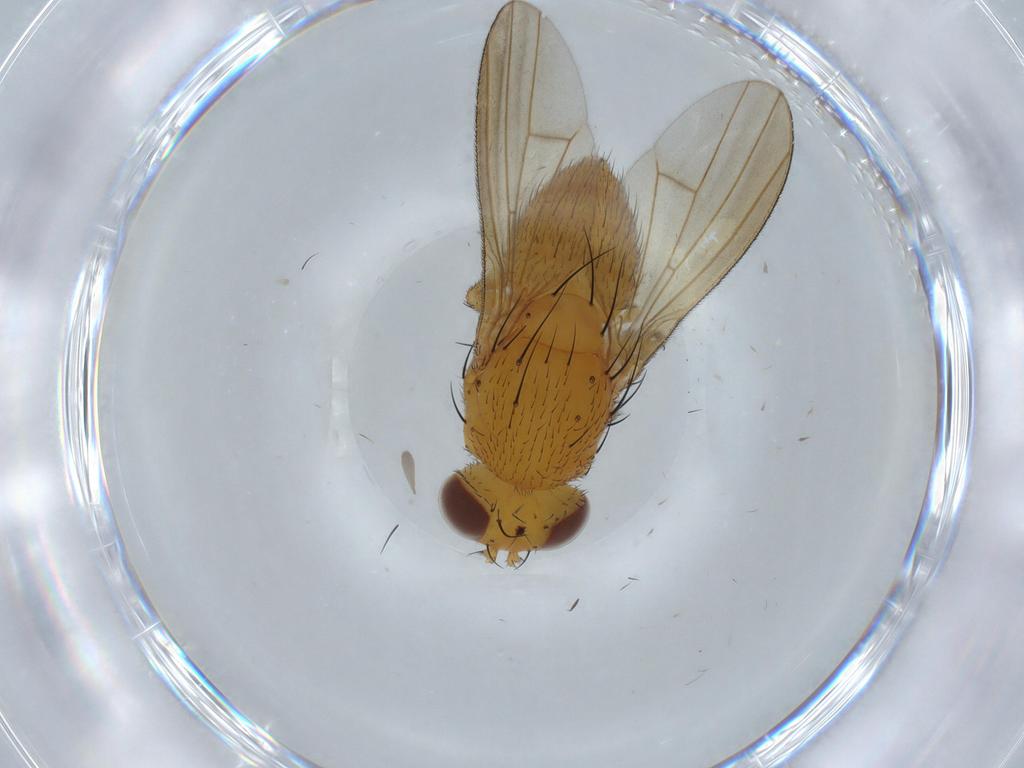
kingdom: Animalia
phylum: Arthropoda
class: Insecta
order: Diptera
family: Lauxaniidae
